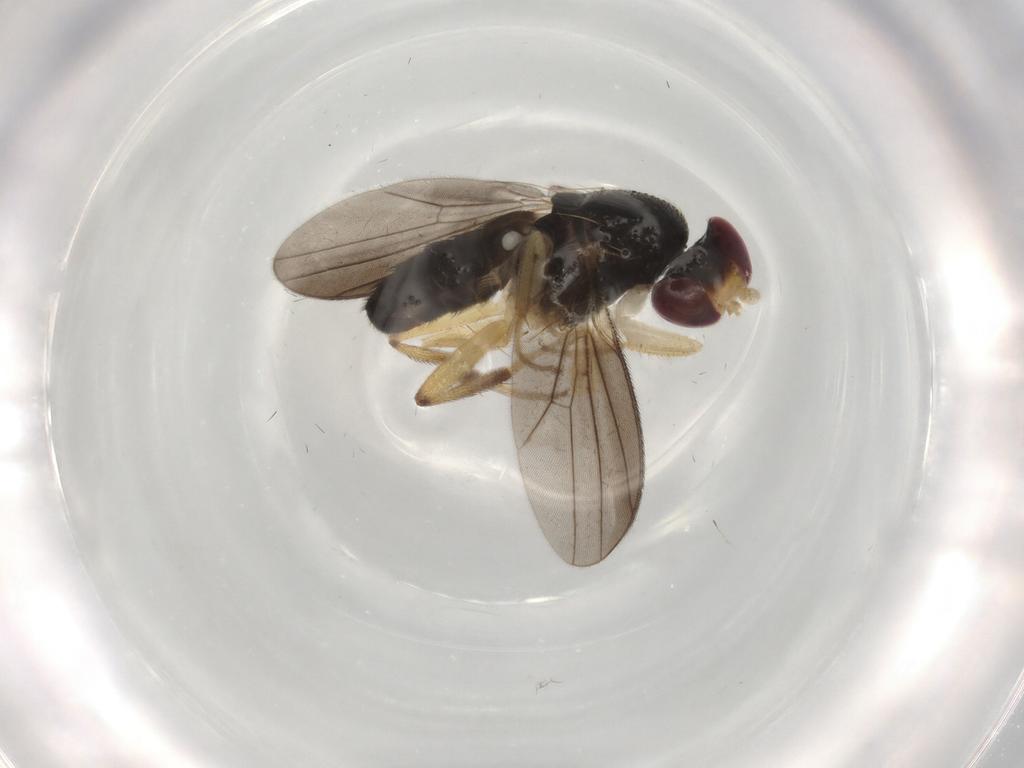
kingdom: Animalia
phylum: Arthropoda
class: Insecta
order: Diptera
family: Chironomidae
